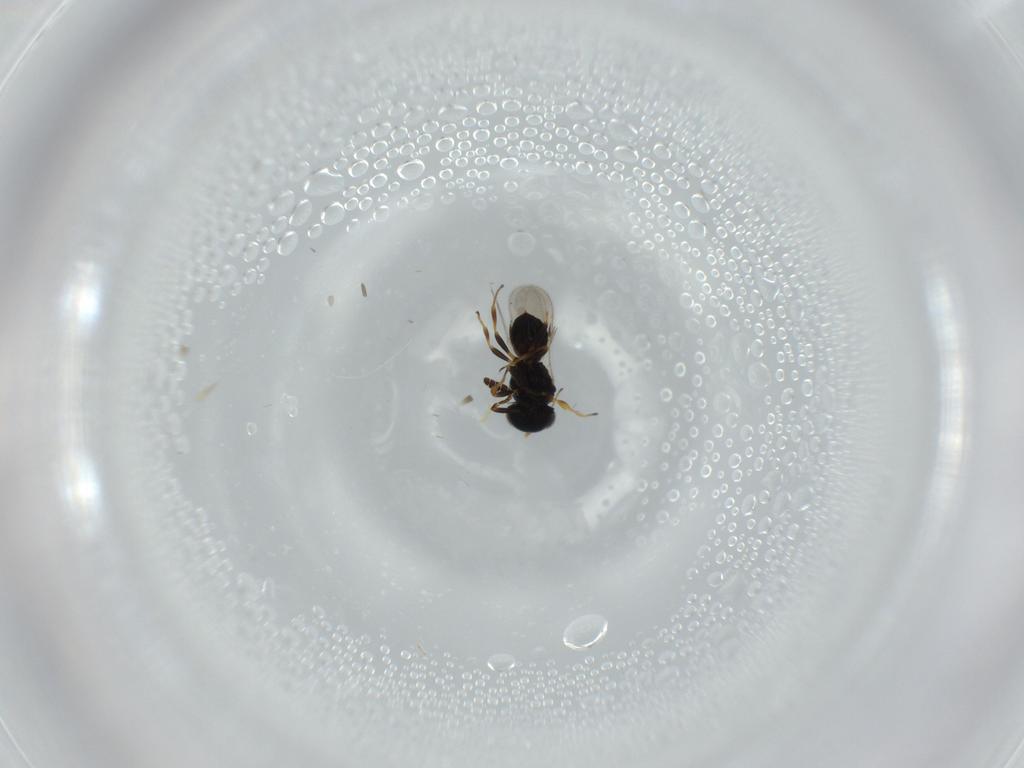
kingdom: Animalia
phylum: Arthropoda
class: Insecta
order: Hymenoptera
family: Scelionidae
